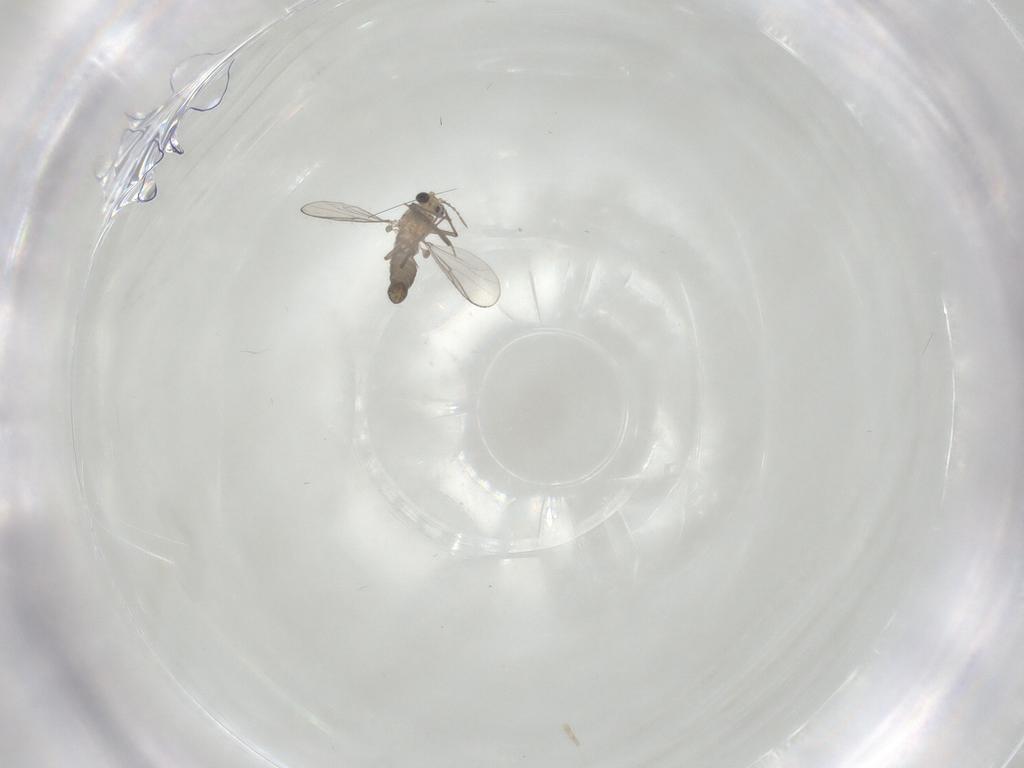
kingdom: Animalia
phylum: Arthropoda
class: Insecta
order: Diptera
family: Chironomidae
